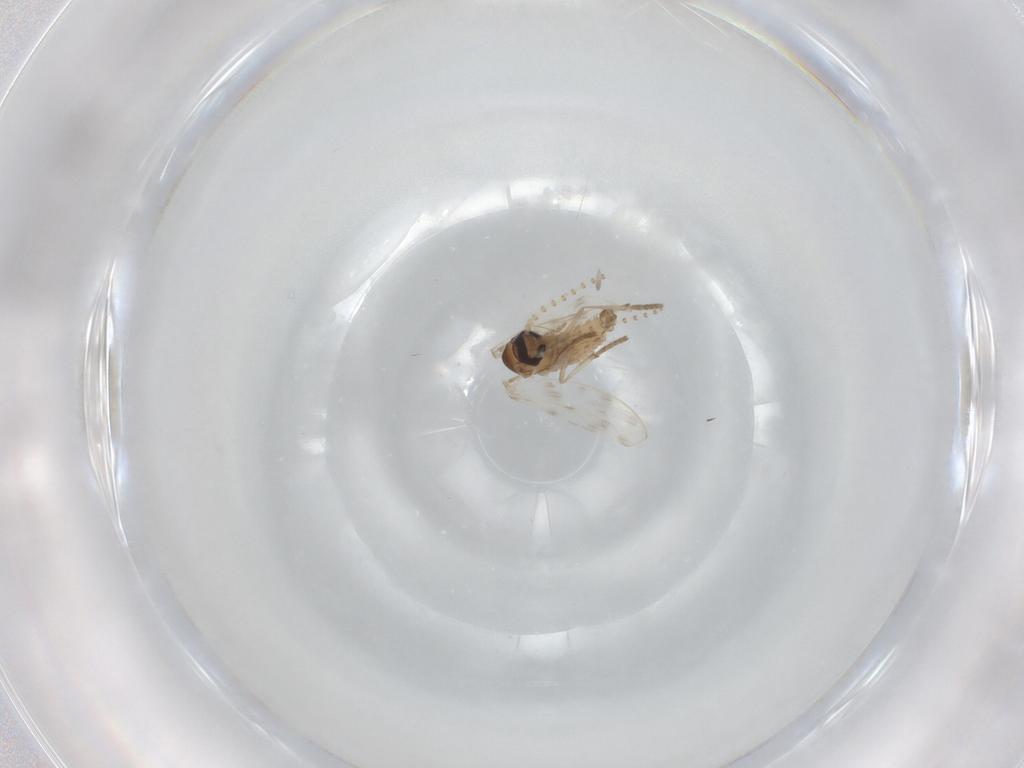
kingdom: Animalia
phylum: Arthropoda
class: Insecta
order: Diptera
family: Psychodidae
